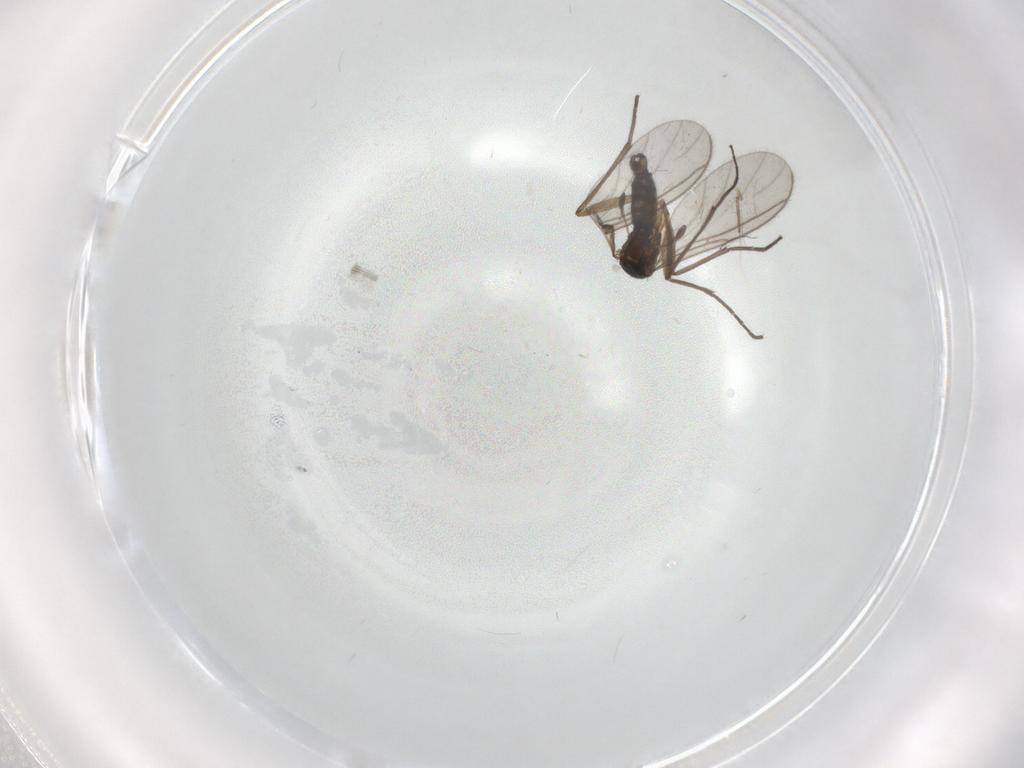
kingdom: Animalia
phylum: Arthropoda
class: Insecta
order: Diptera
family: Sciaridae
